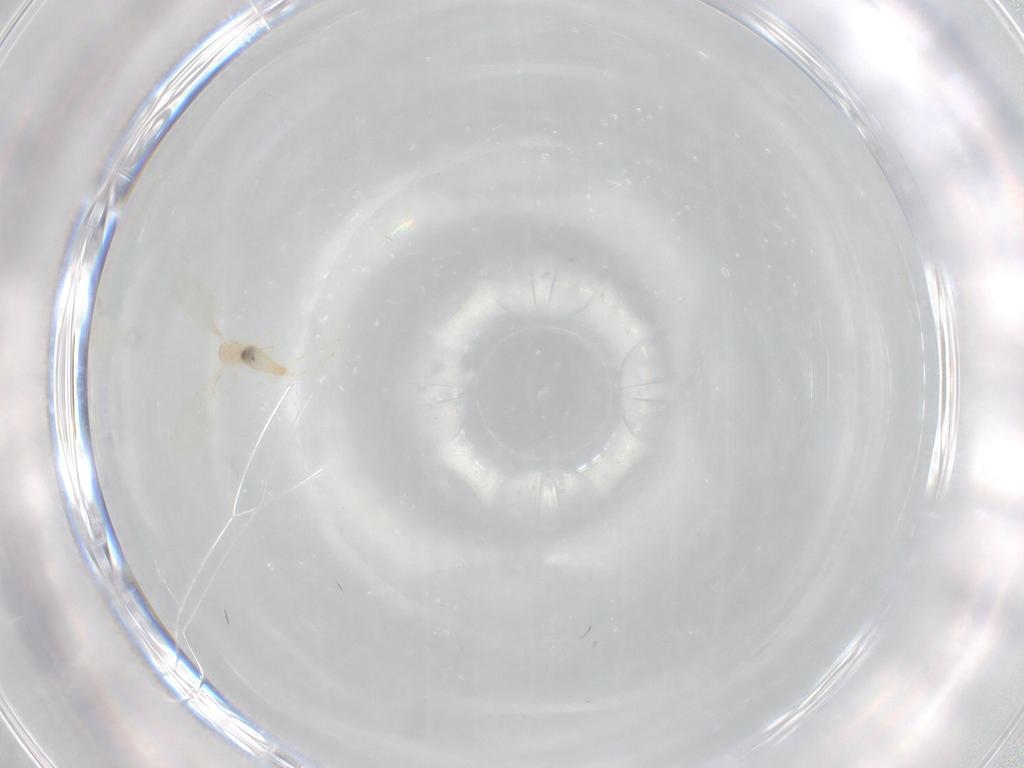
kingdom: Animalia
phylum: Arthropoda
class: Insecta
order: Diptera
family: Cecidomyiidae
